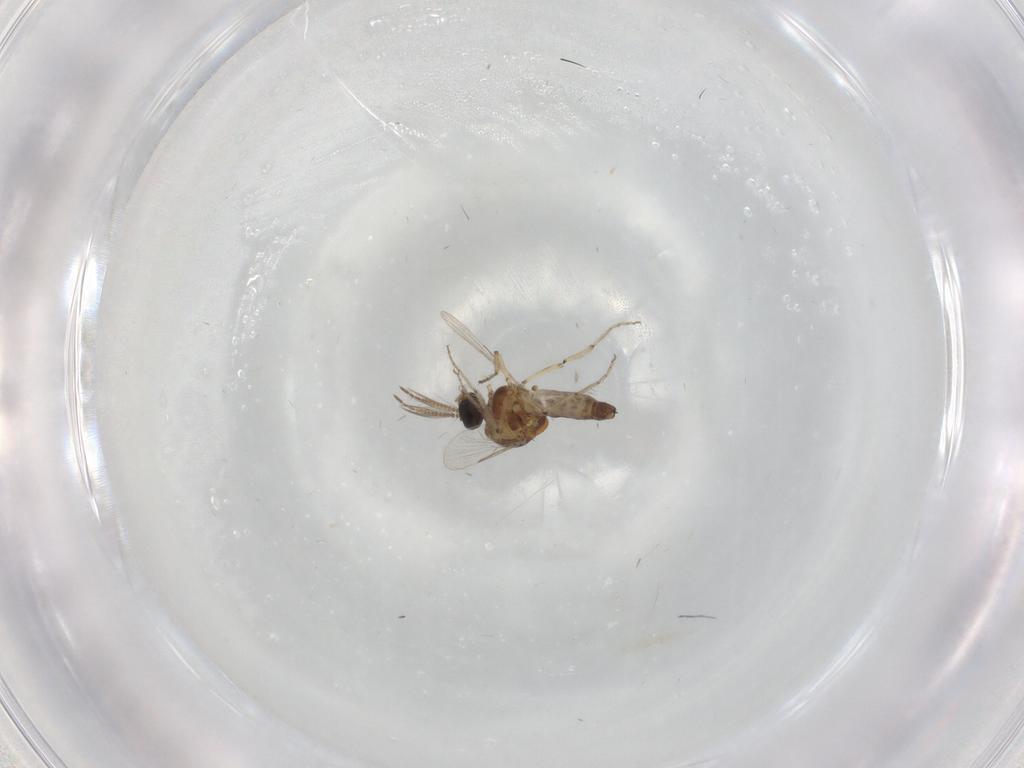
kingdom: Animalia
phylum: Arthropoda
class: Insecta
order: Diptera
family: Ceratopogonidae
